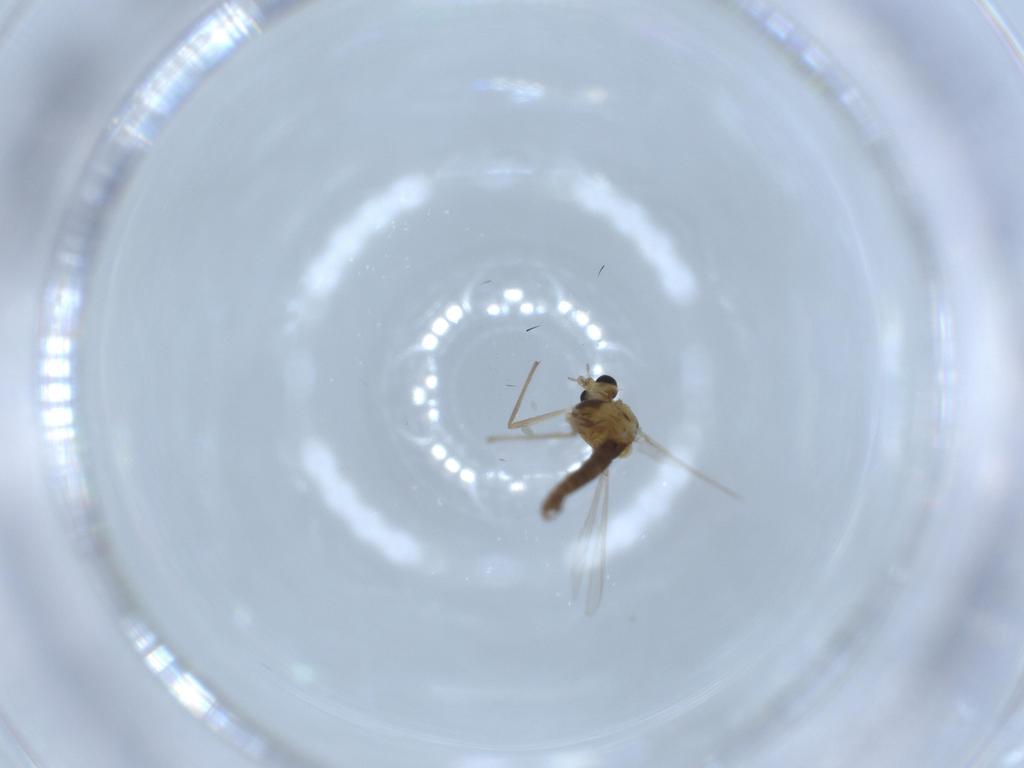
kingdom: Animalia
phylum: Arthropoda
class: Insecta
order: Diptera
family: Chironomidae
